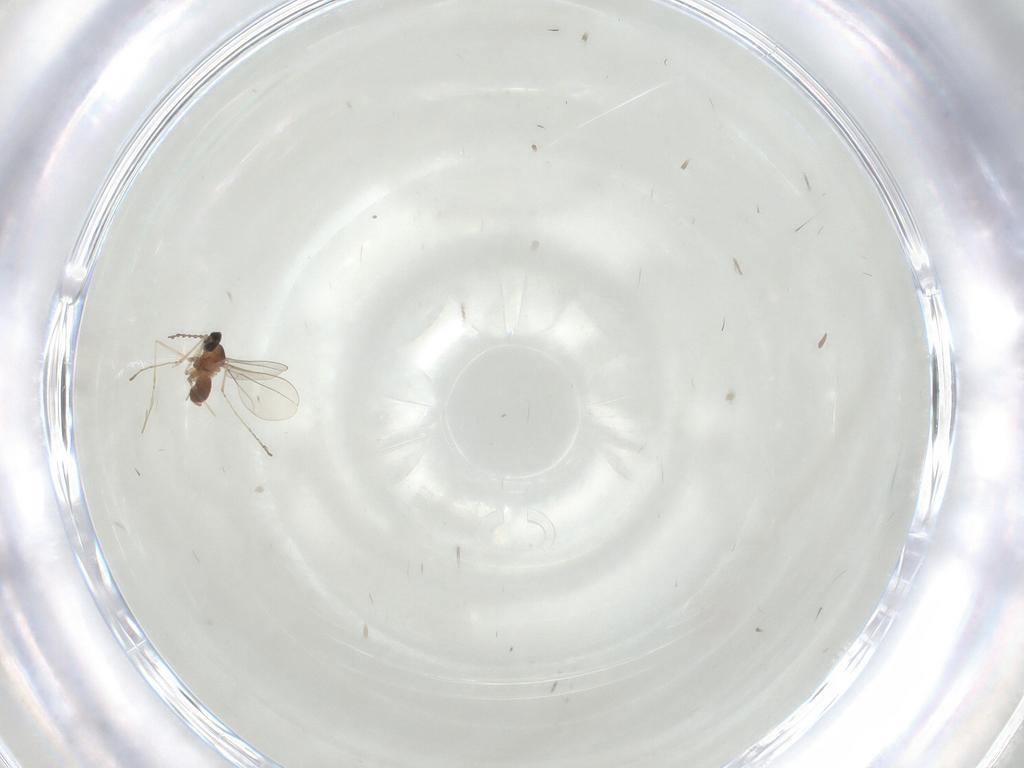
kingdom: Animalia
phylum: Arthropoda
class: Insecta
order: Diptera
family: Cecidomyiidae
